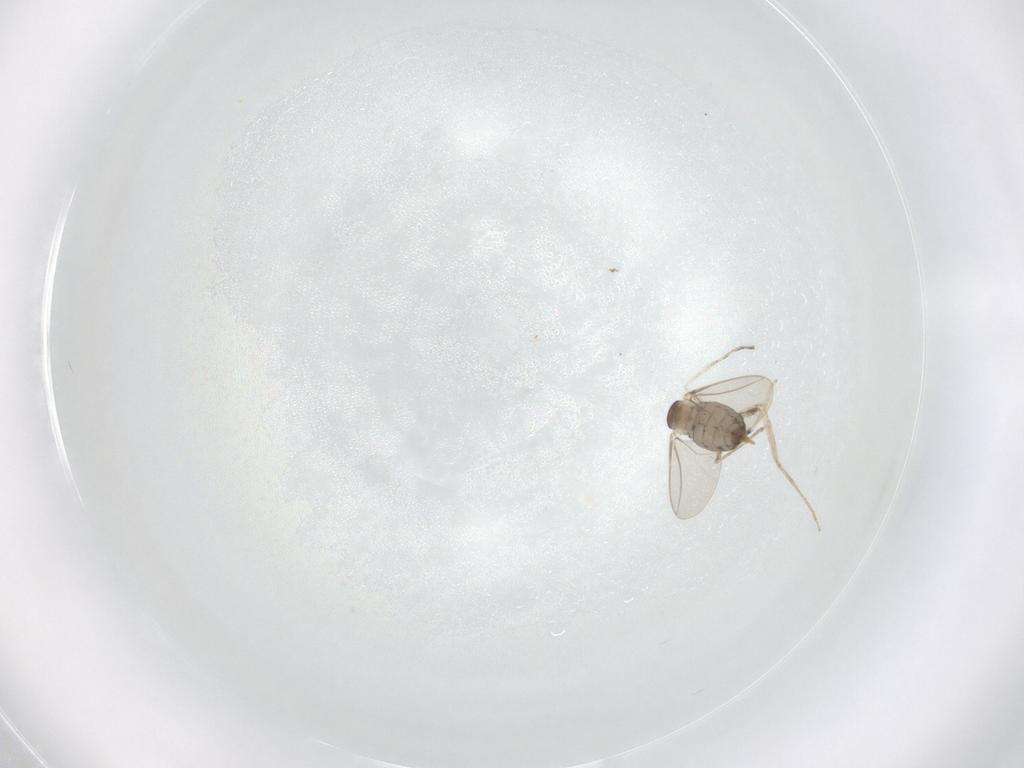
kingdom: Animalia
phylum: Arthropoda
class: Insecta
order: Diptera
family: Cecidomyiidae
